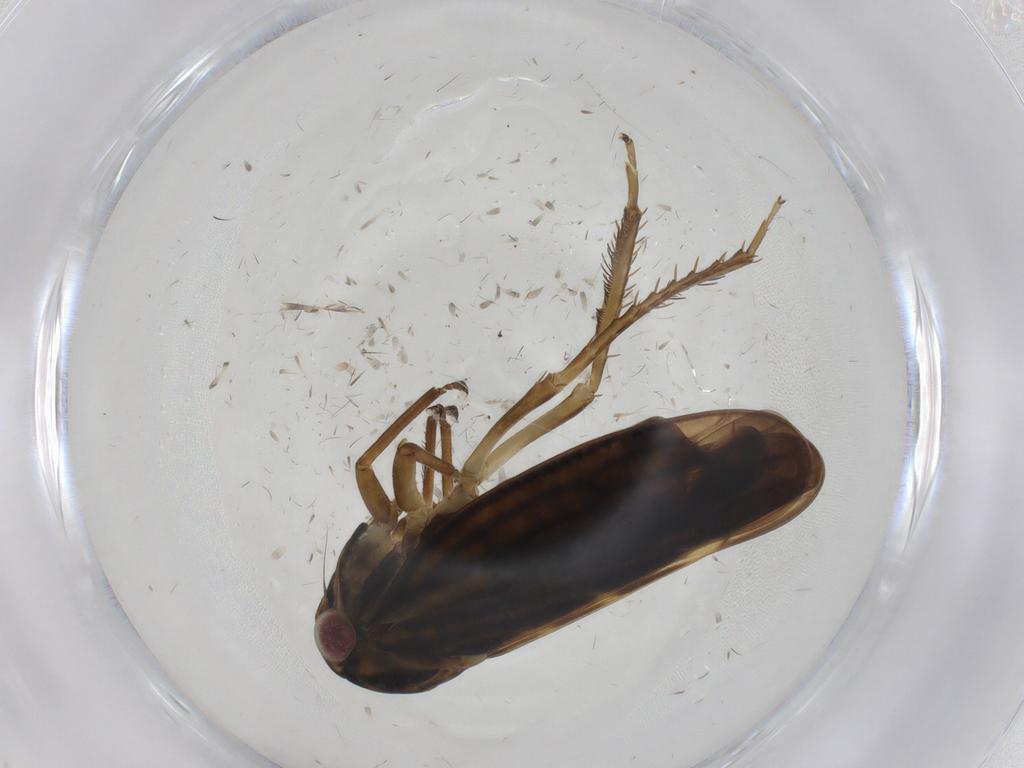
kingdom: Animalia
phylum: Arthropoda
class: Insecta
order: Hemiptera
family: Cicadellidae
